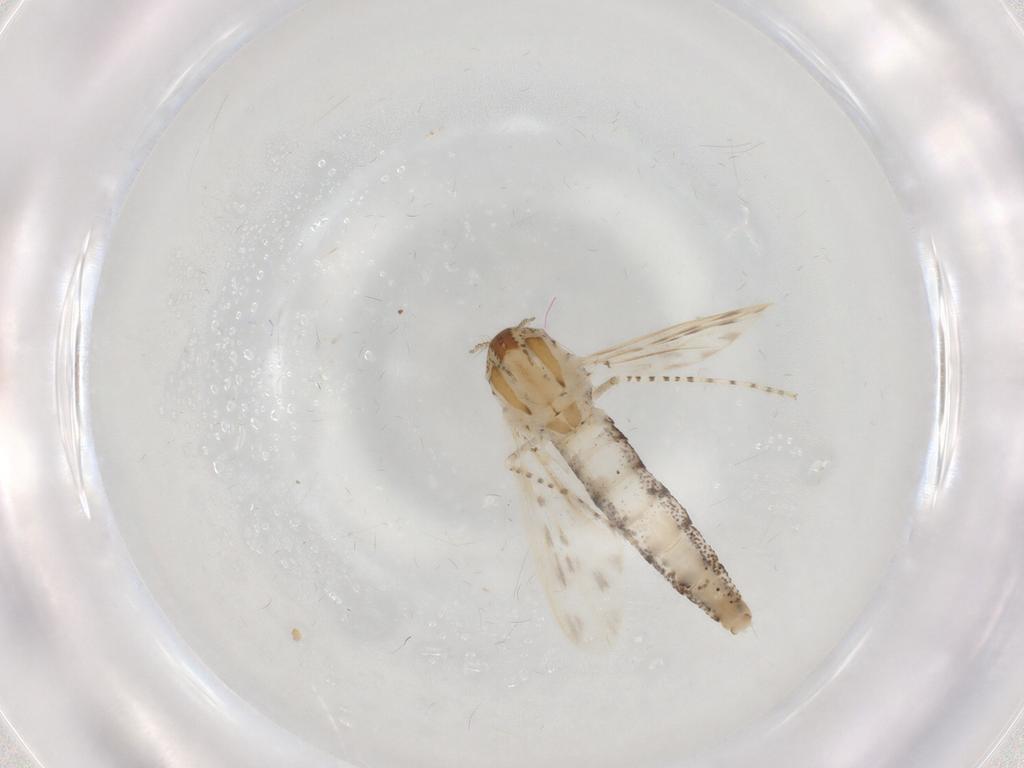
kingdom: Animalia
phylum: Arthropoda
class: Insecta
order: Diptera
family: Chaoboridae
